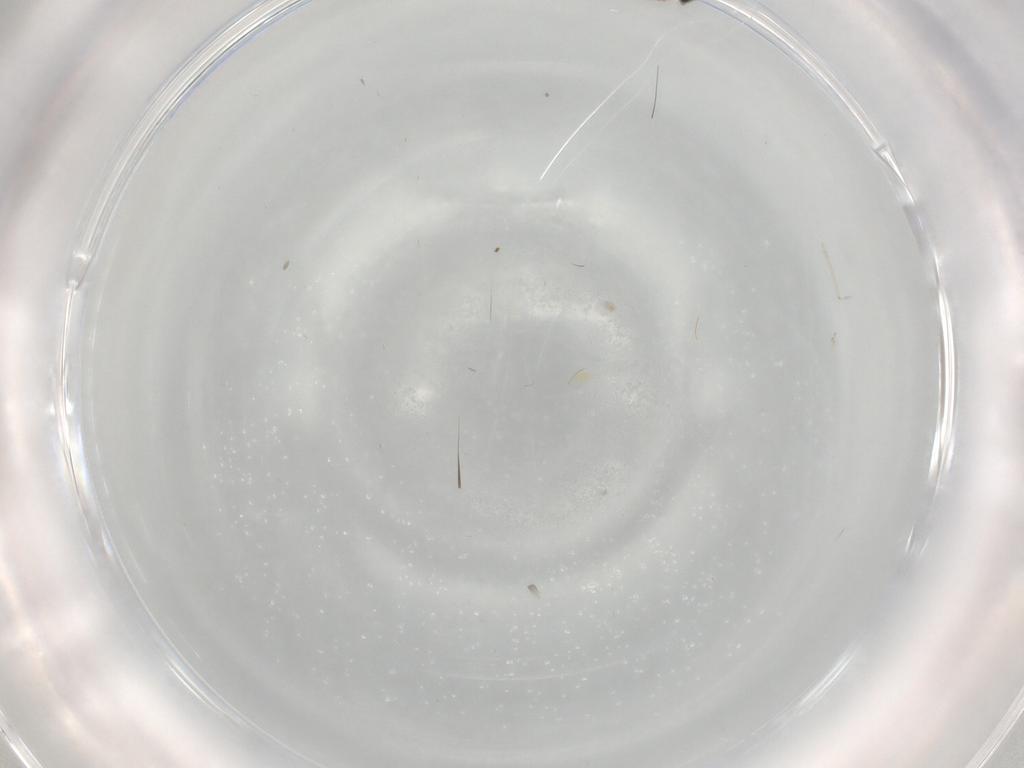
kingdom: Animalia
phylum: Arthropoda
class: Insecta
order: Diptera
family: Cecidomyiidae
